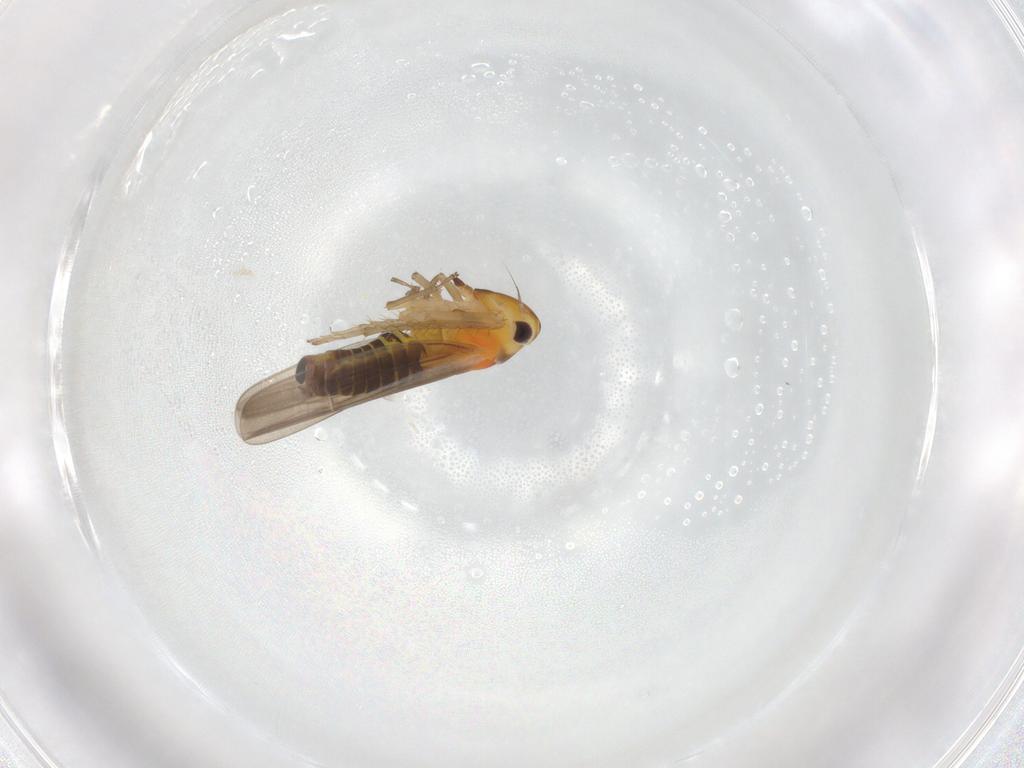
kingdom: Animalia
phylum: Arthropoda
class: Insecta
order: Hemiptera
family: Cicadellidae
